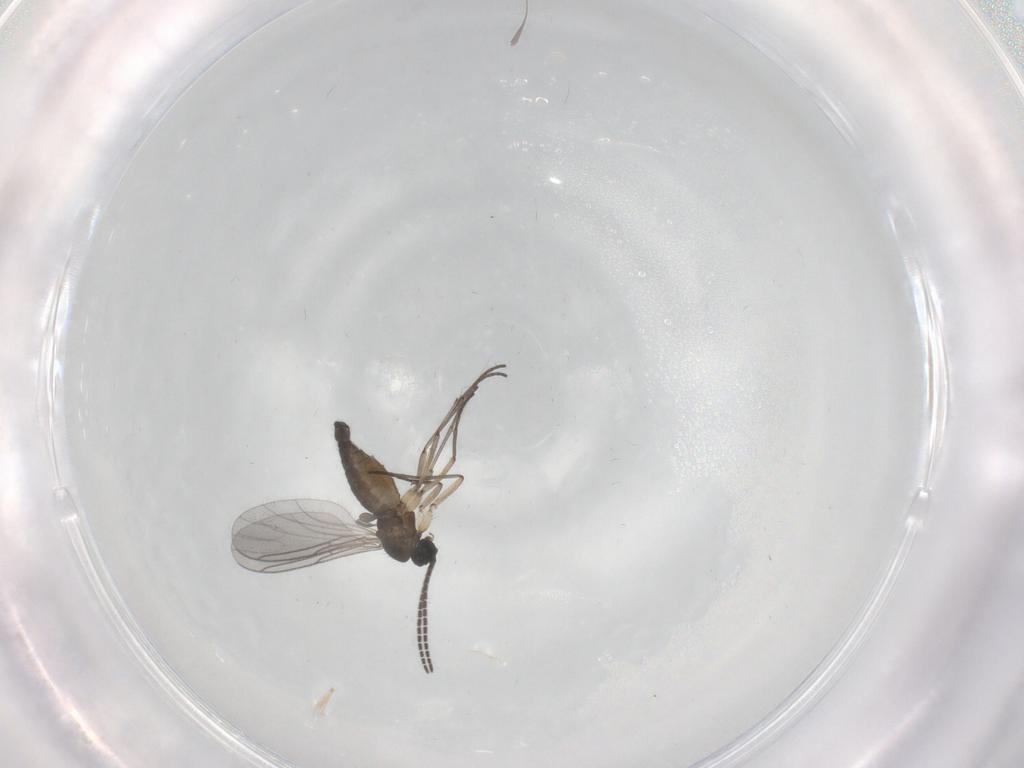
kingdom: Animalia
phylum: Arthropoda
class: Insecta
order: Diptera
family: Sciaridae
